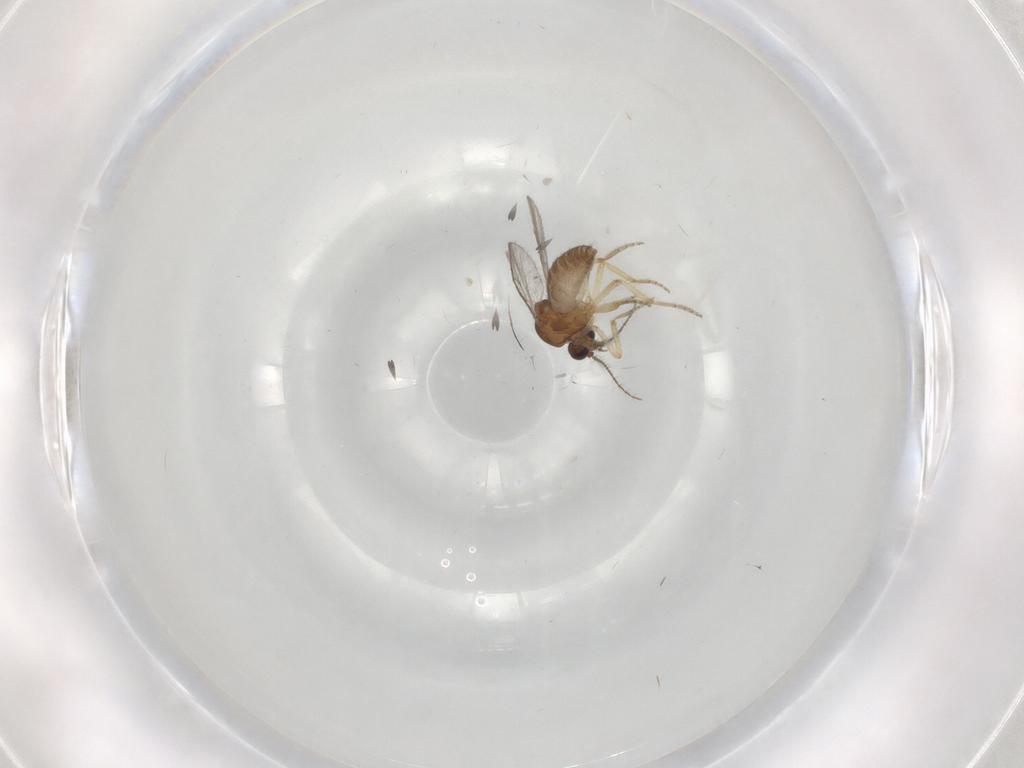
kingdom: Animalia
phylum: Arthropoda
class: Insecta
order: Diptera
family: Ceratopogonidae
